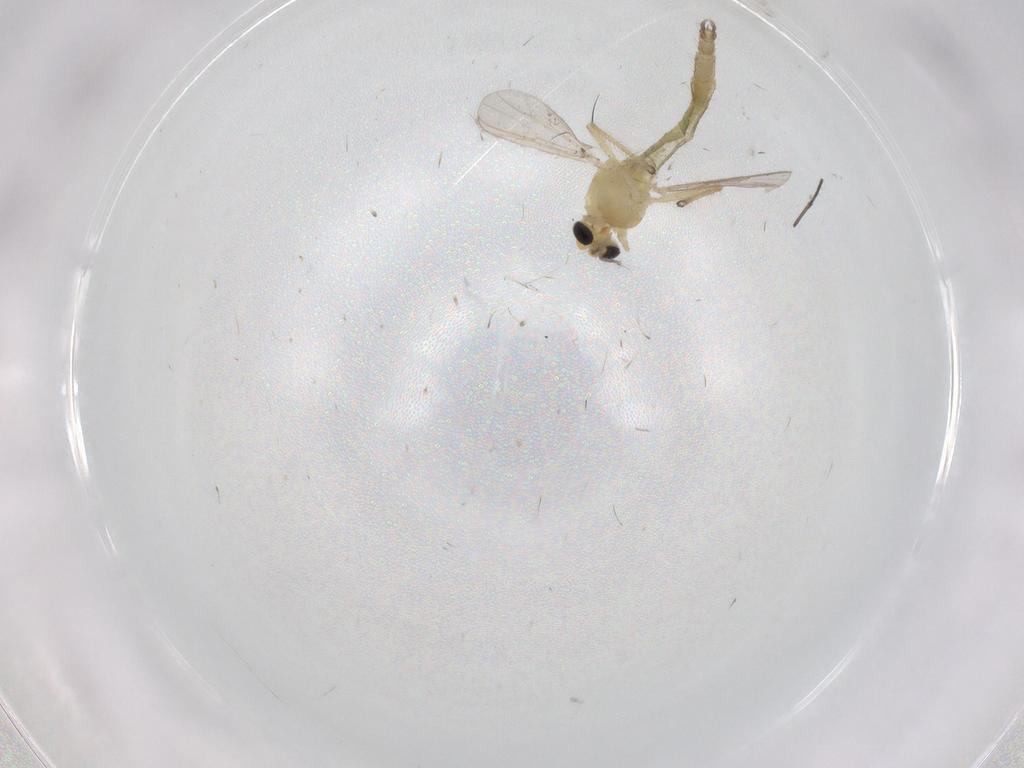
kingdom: Animalia
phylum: Arthropoda
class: Insecta
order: Diptera
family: Chironomidae
